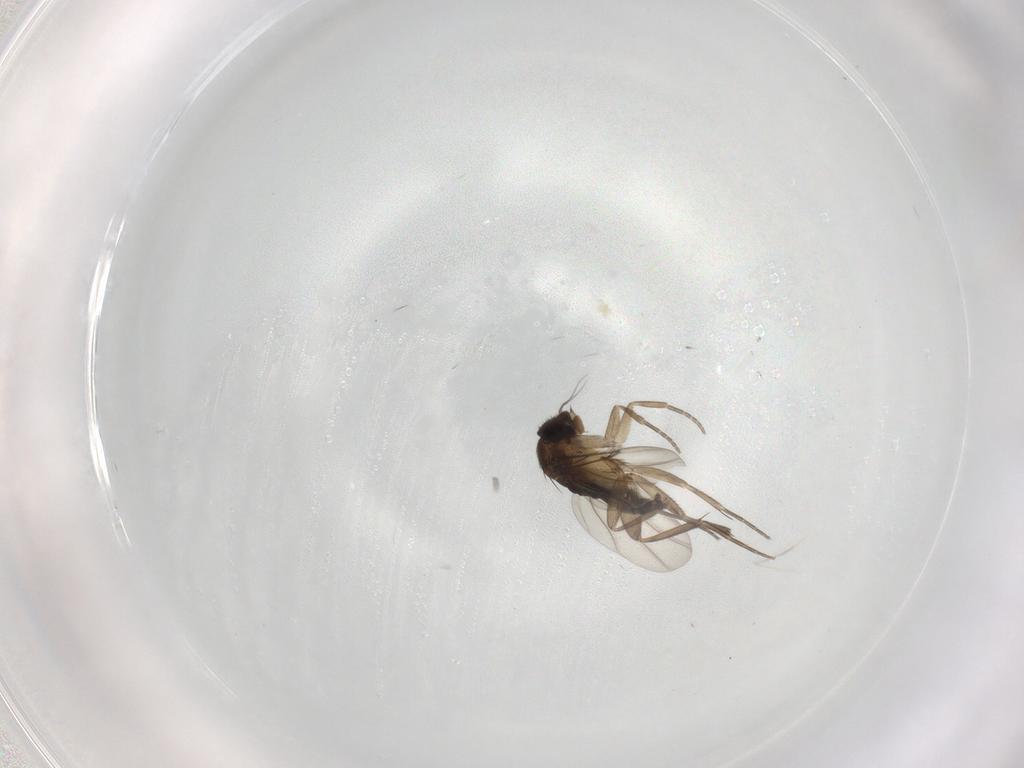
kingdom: Animalia
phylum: Arthropoda
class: Insecta
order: Diptera
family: Phoridae
